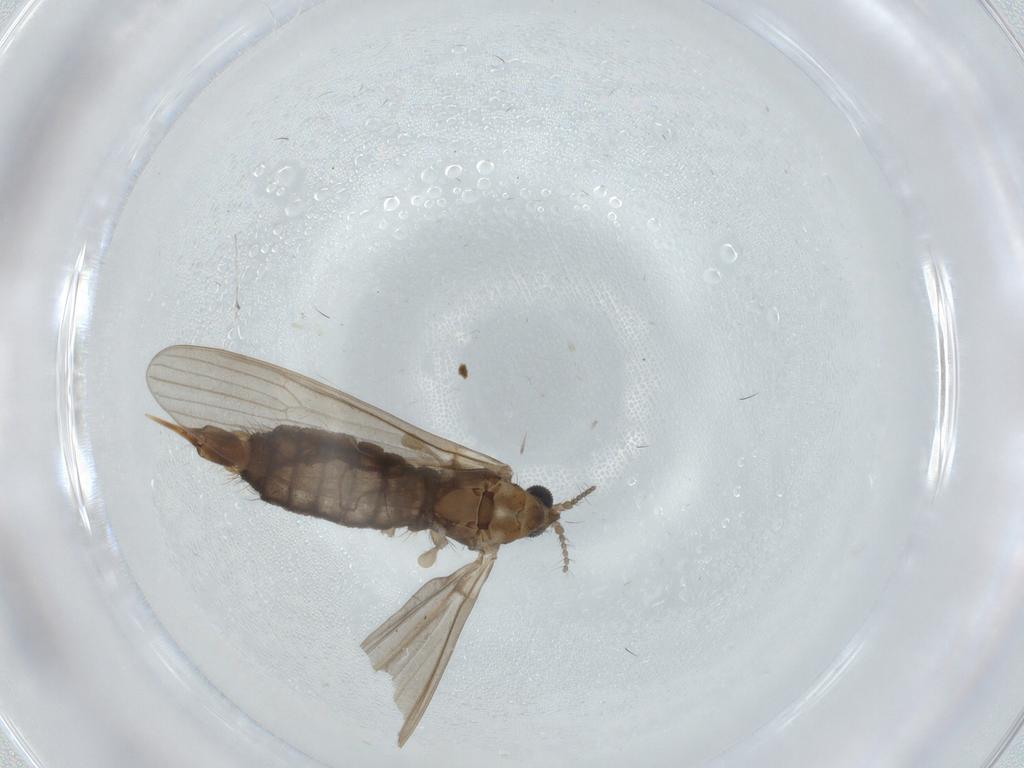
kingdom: Animalia
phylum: Arthropoda
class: Insecta
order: Diptera
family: Limoniidae
